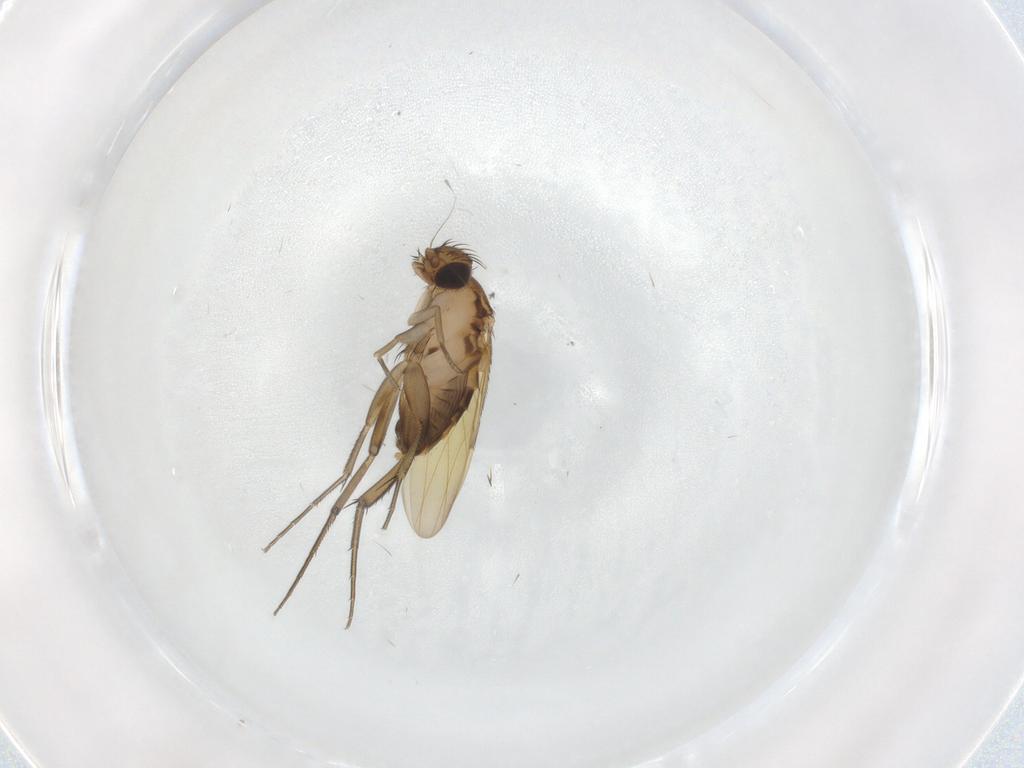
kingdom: Animalia
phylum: Arthropoda
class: Insecta
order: Diptera
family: Phoridae
